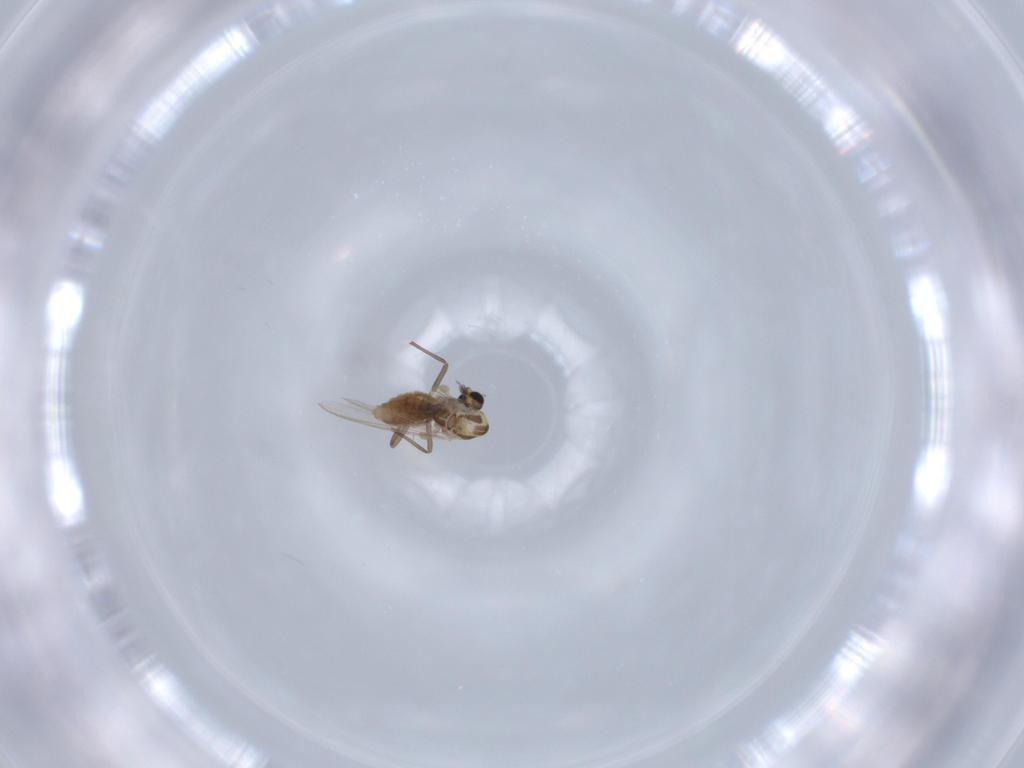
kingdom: Animalia
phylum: Arthropoda
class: Insecta
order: Diptera
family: Chironomidae
